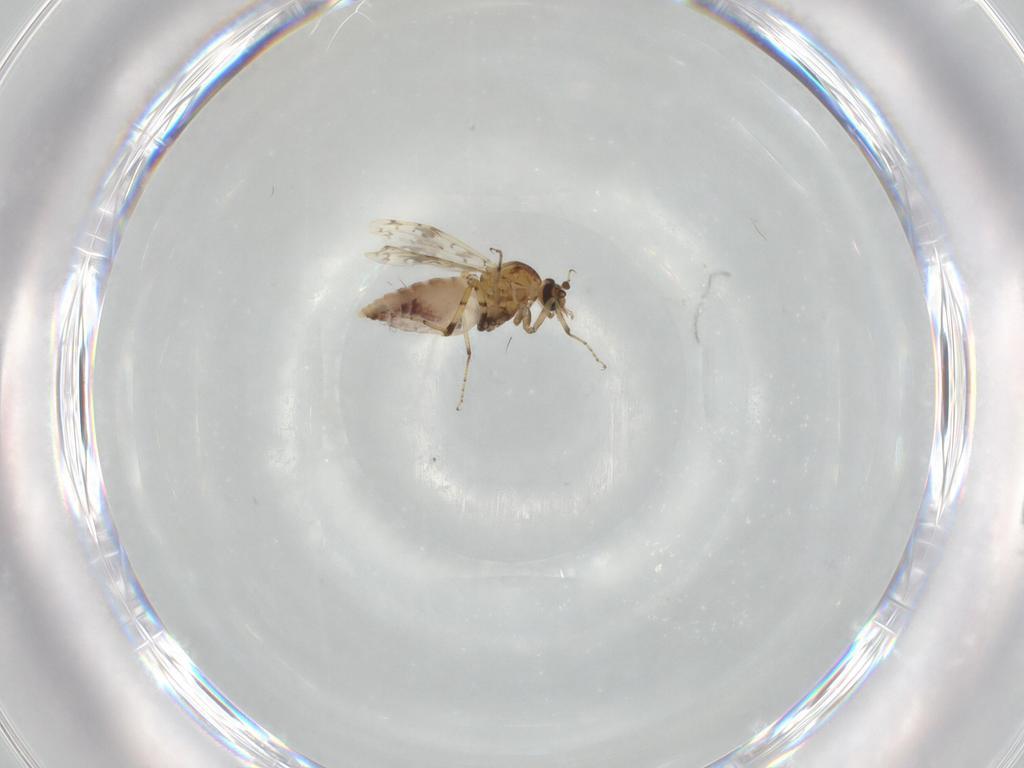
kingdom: Animalia
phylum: Arthropoda
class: Insecta
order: Diptera
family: Ceratopogonidae
